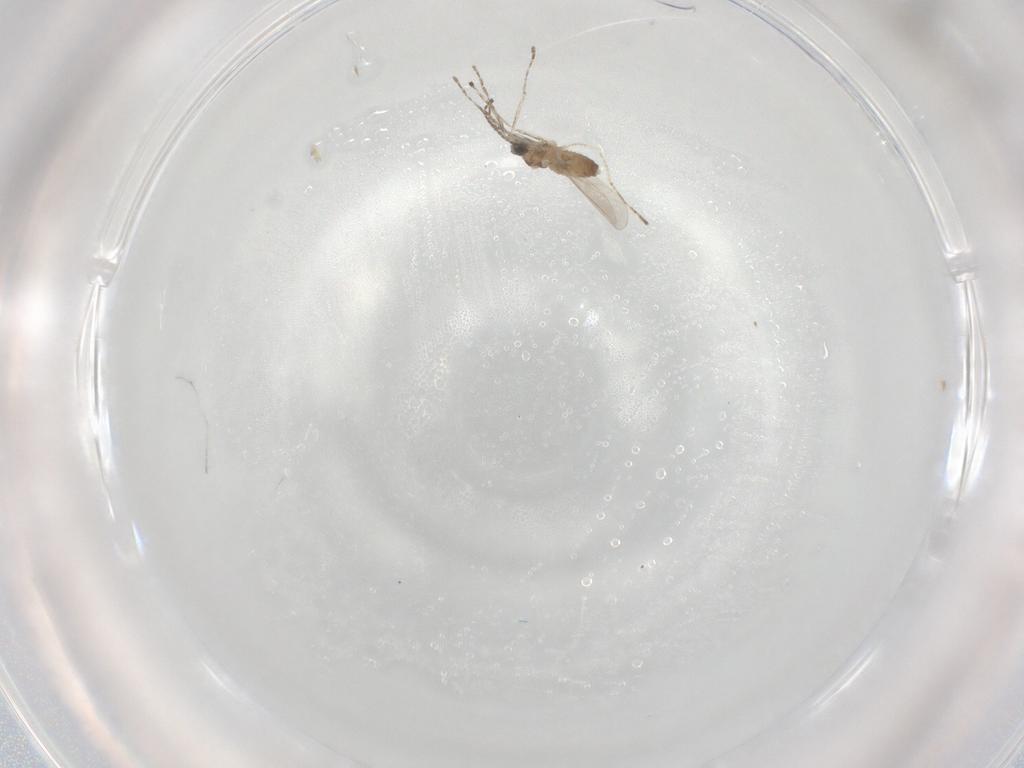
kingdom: Animalia
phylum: Arthropoda
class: Insecta
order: Diptera
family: Cecidomyiidae
